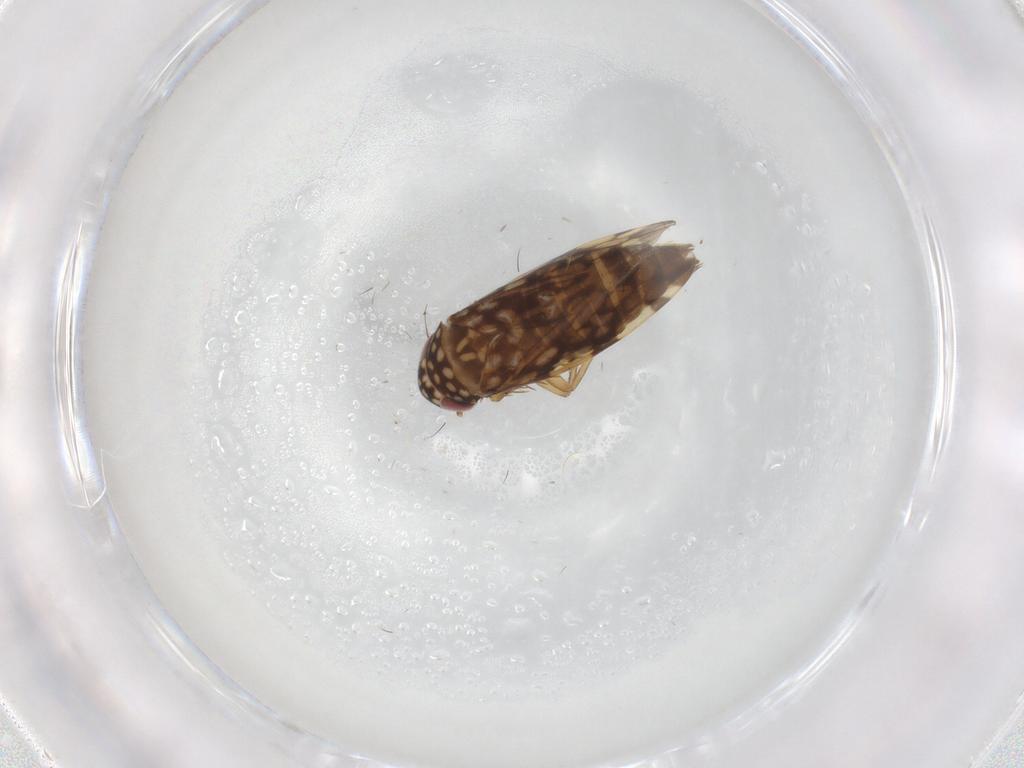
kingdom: Animalia
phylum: Arthropoda
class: Insecta
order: Hemiptera
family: Cicadellidae
